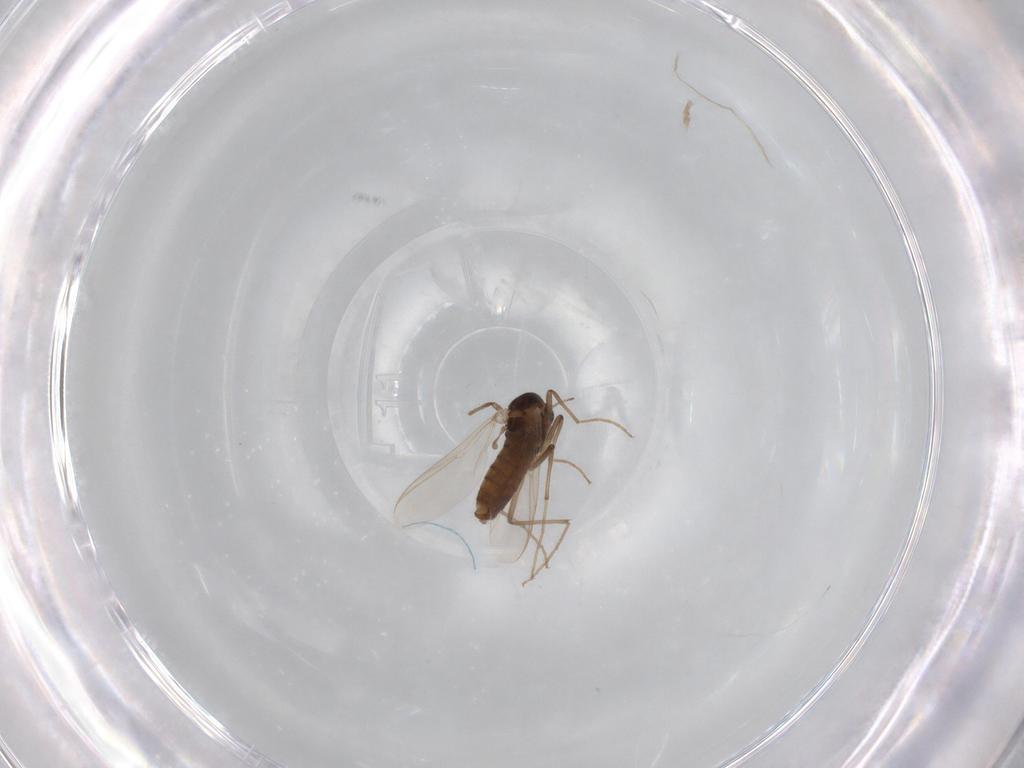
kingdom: Animalia
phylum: Arthropoda
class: Insecta
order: Diptera
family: Chironomidae
